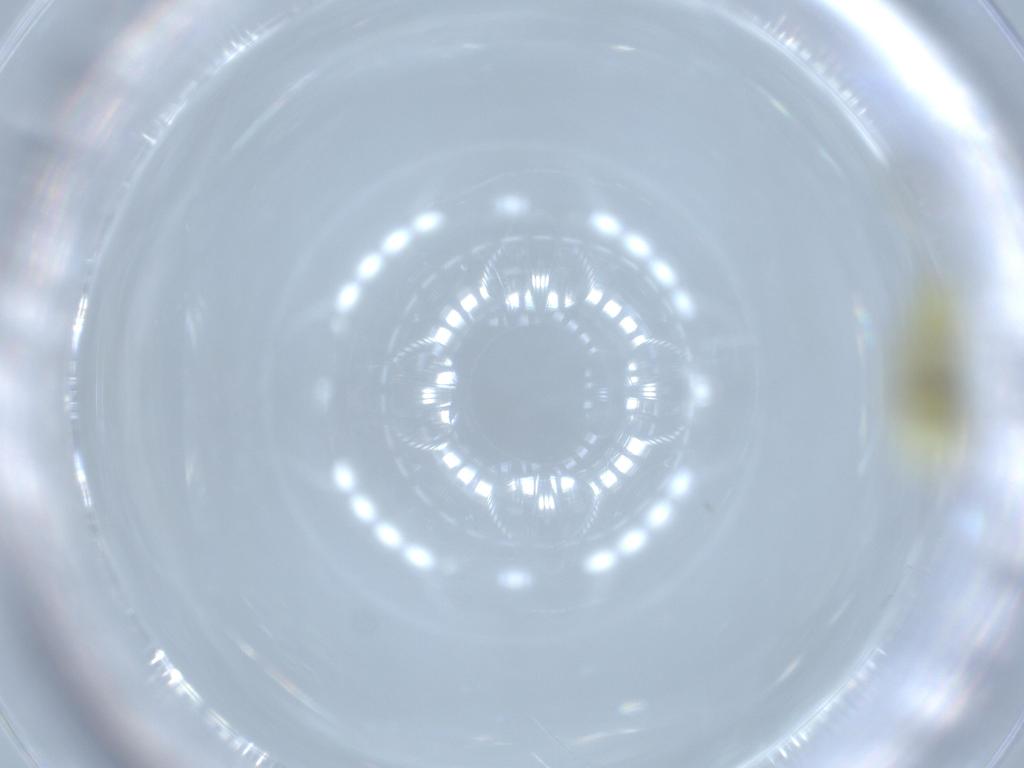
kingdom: Animalia
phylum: Arthropoda
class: Insecta
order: Hemiptera
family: Cicadellidae
